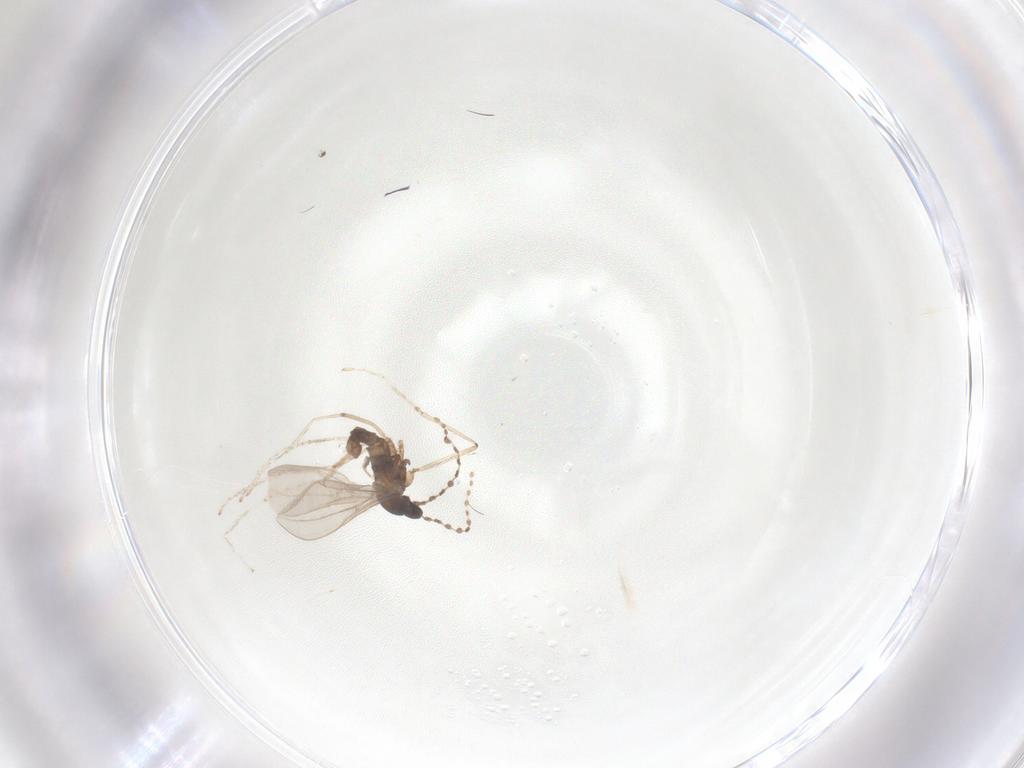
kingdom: Animalia
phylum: Arthropoda
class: Insecta
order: Diptera
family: Cecidomyiidae
